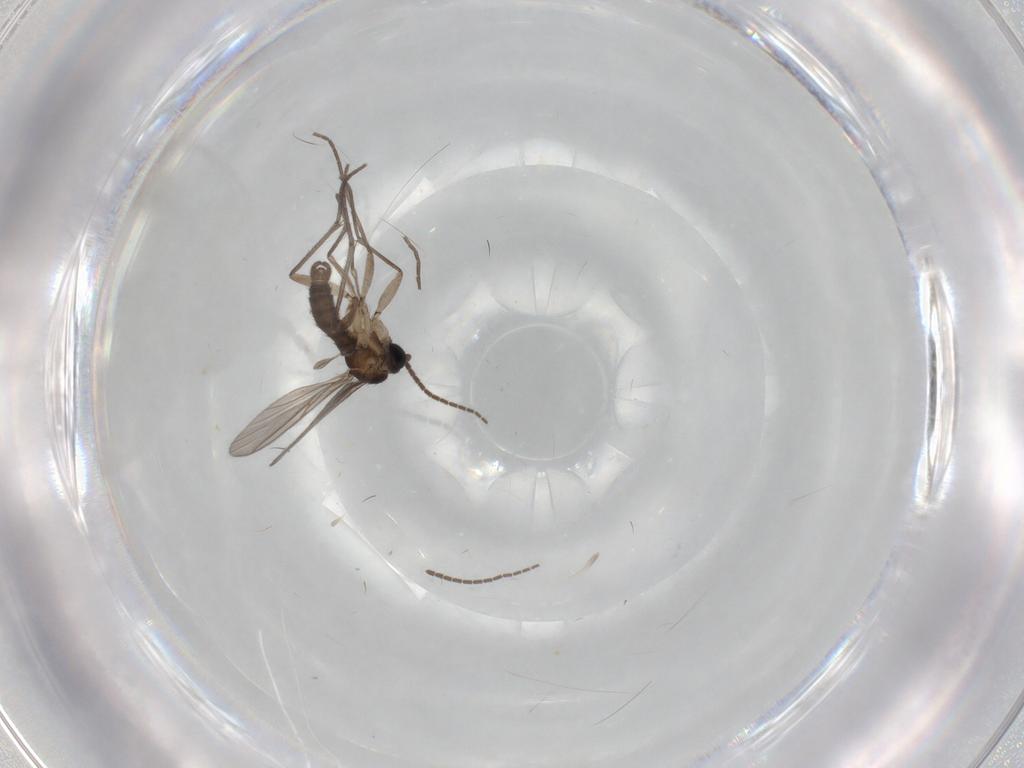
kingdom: Animalia
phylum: Arthropoda
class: Insecta
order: Diptera
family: Sciaridae
